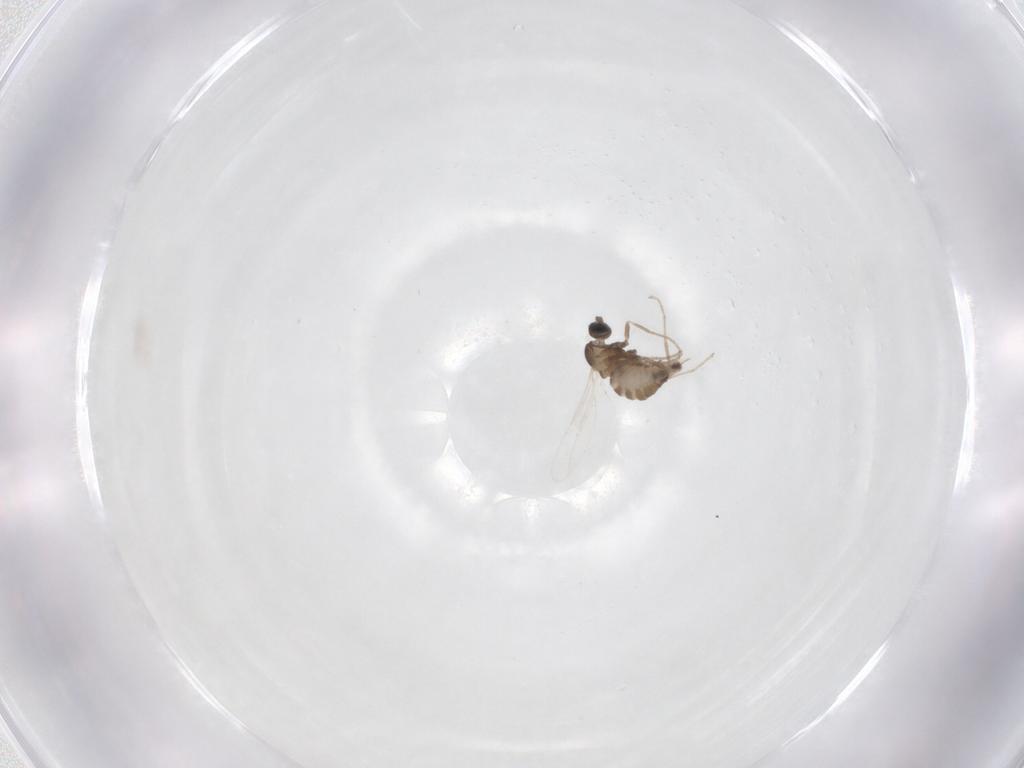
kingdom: Animalia
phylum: Arthropoda
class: Insecta
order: Diptera
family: Cecidomyiidae
